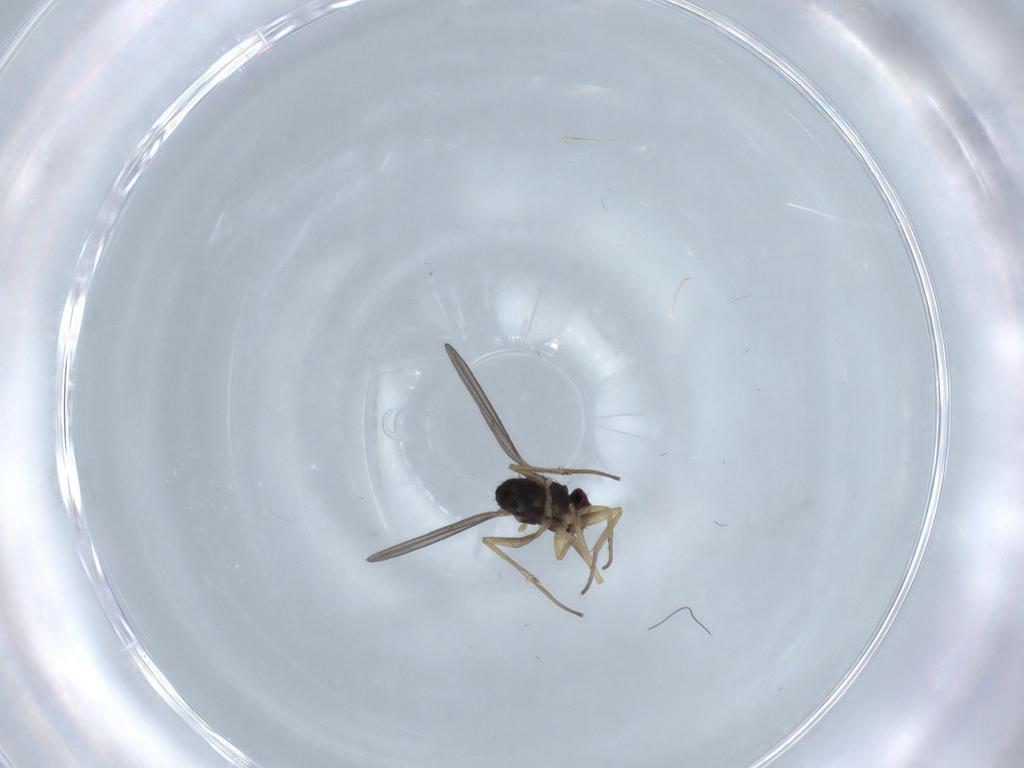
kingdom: Animalia
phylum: Arthropoda
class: Insecta
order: Diptera
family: Dolichopodidae
